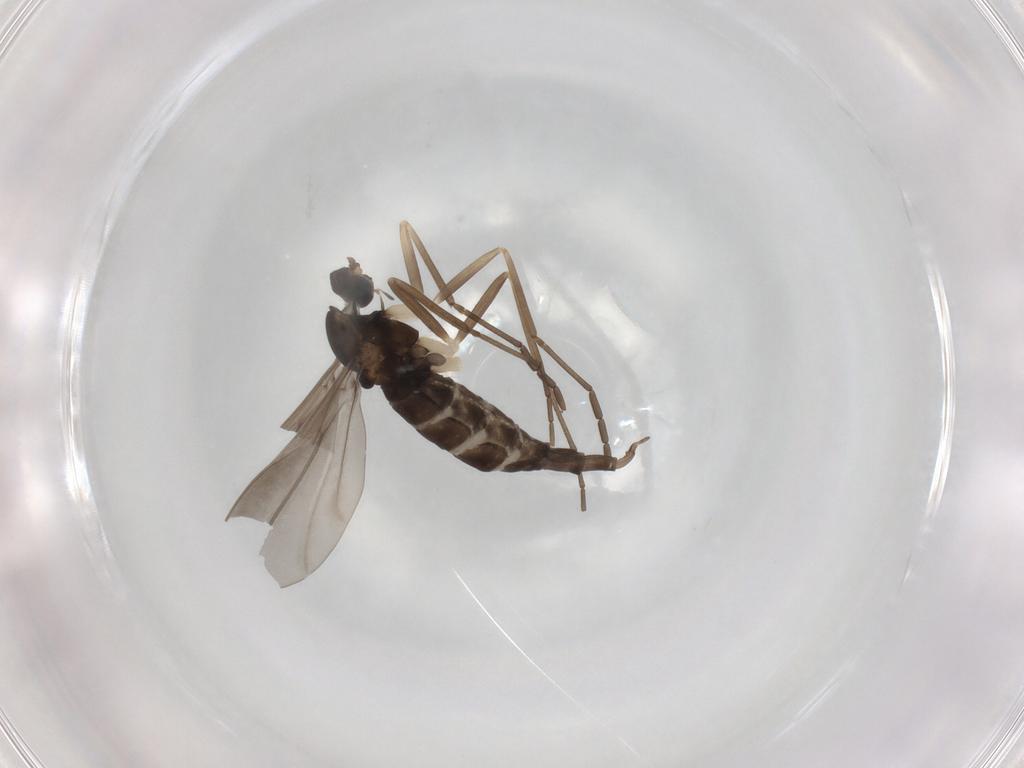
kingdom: Animalia
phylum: Arthropoda
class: Insecta
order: Diptera
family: Cecidomyiidae
